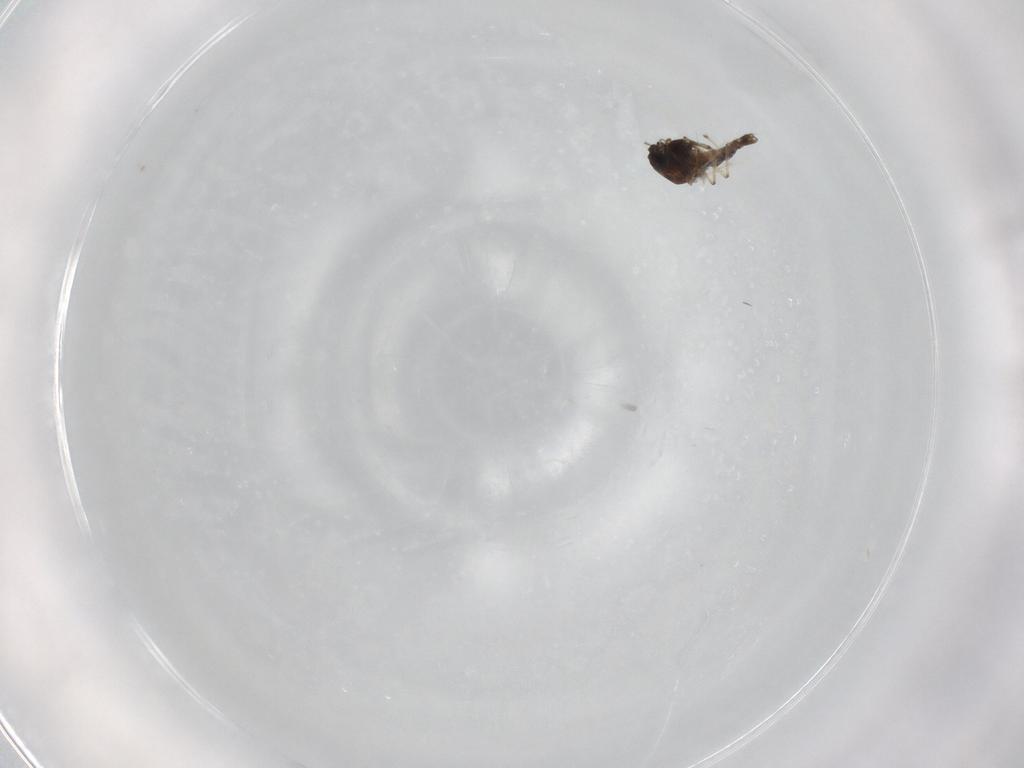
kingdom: Animalia
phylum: Arthropoda
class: Insecta
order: Diptera
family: Chironomidae
